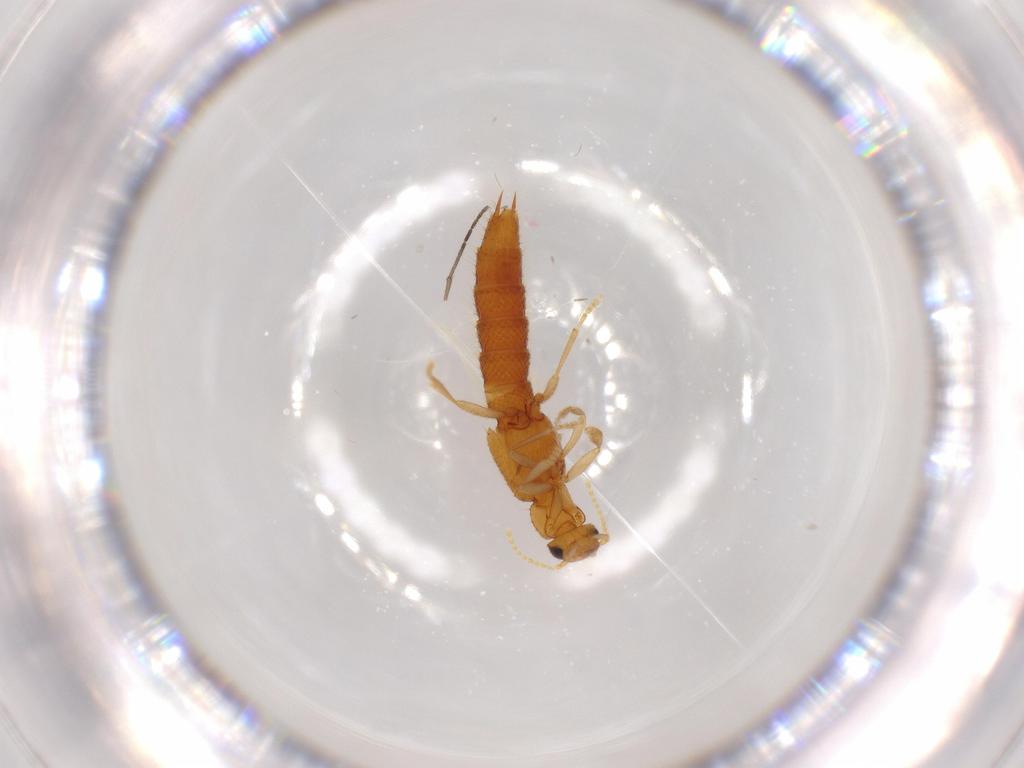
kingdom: Animalia
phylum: Arthropoda
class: Insecta
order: Coleoptera
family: Staphylinidae
